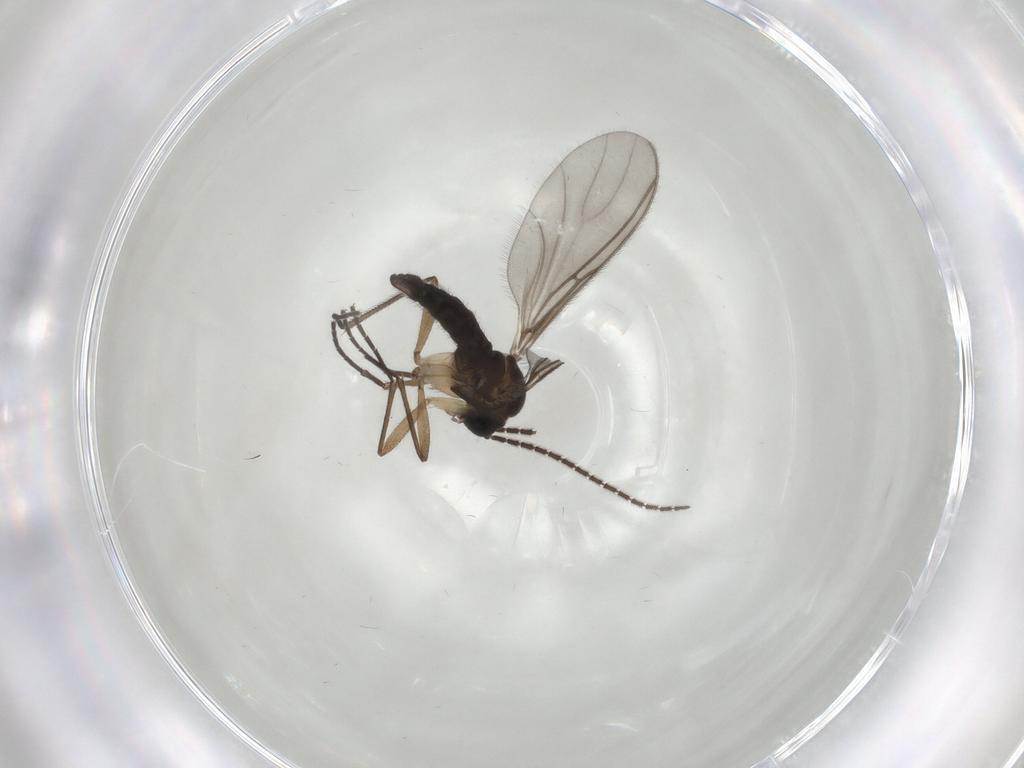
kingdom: Animalia
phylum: Arthropoda
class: Insecta
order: Diptera
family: Sciaridae
